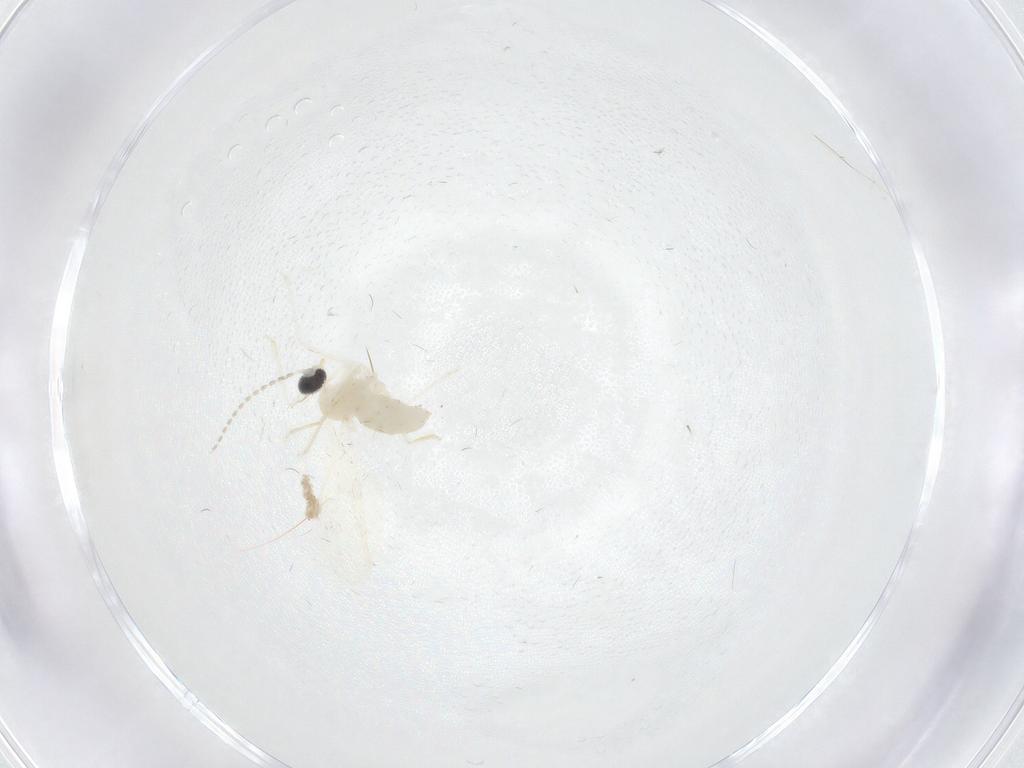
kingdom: Animalia
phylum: Arthropoda
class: Insecta
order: Diptera
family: Cecidomyiidae
